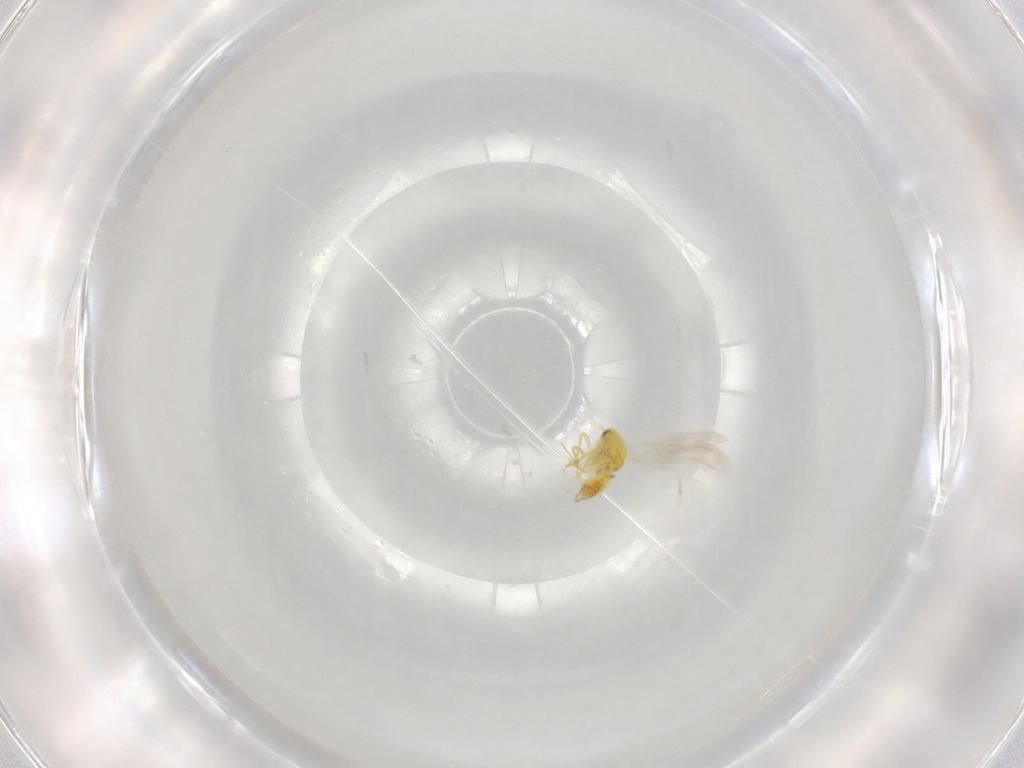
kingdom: Animalia
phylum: Arthropoda
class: Insecta
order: Hemiptera
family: Aleyrodidae
